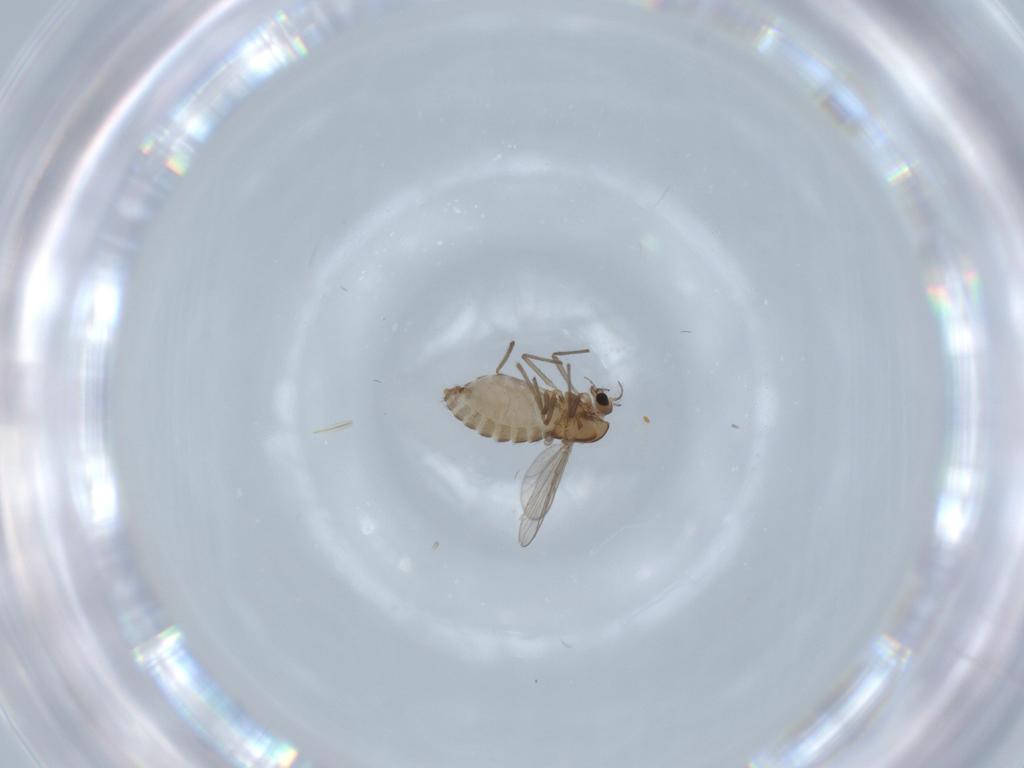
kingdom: Animalia
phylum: Arthropoda
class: Insecta
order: Diptera
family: Chironomidae
